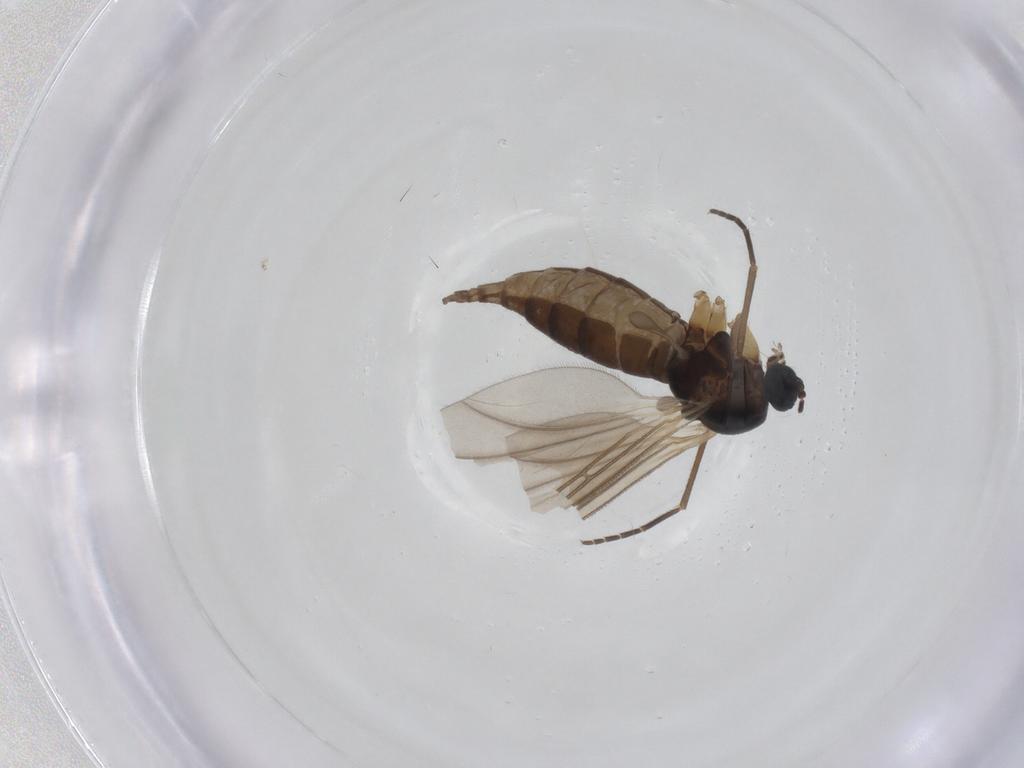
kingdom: Animalia
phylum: Arthropoda
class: Insecta
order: Diptera
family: Sciaridae
